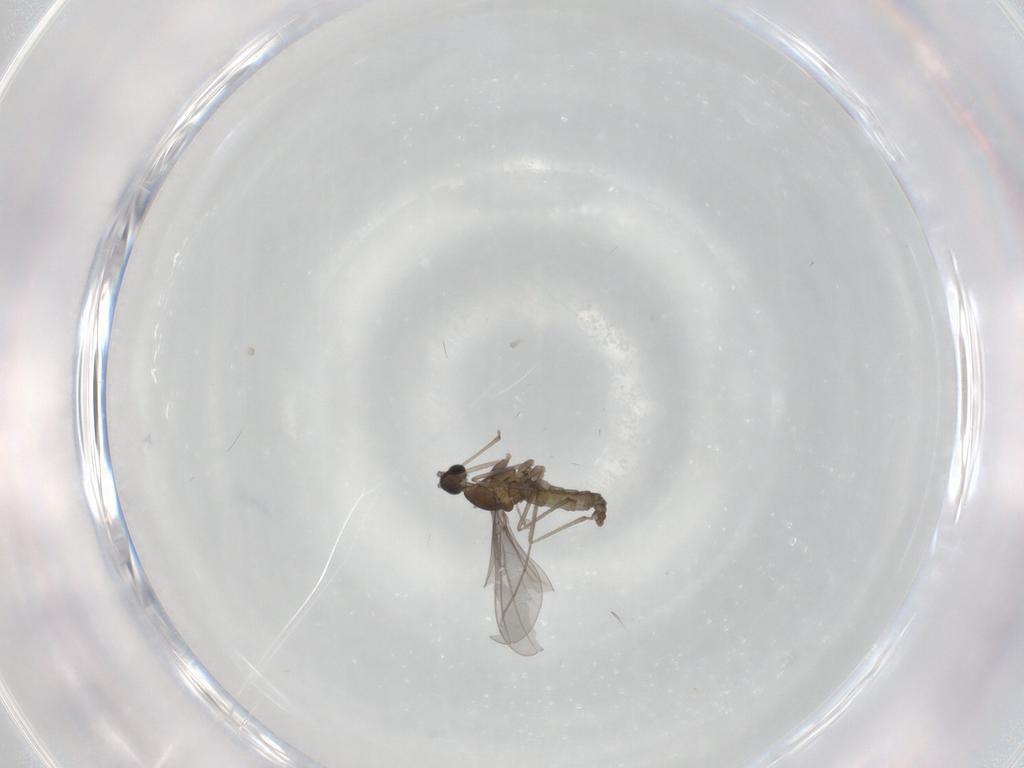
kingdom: Animalia
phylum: Arthropoda
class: Insecta
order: Diptera
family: Cecidomyiidae
